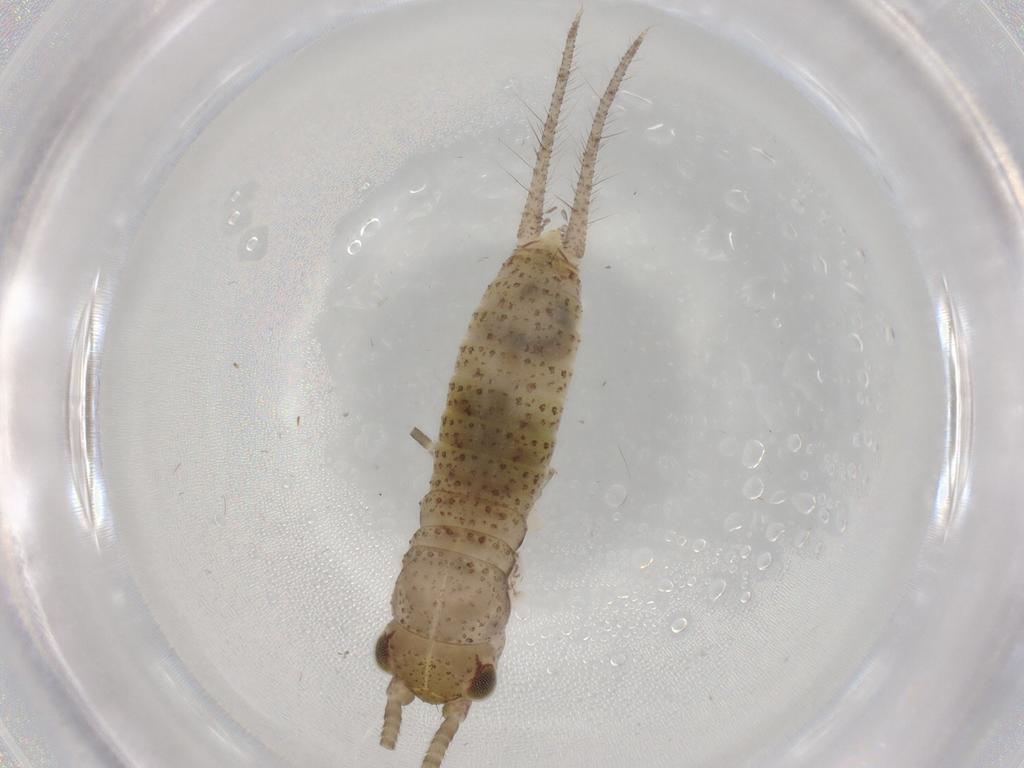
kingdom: Animalia
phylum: Arthropoda
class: Insecta
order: Orthoptera
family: Gryllidae
